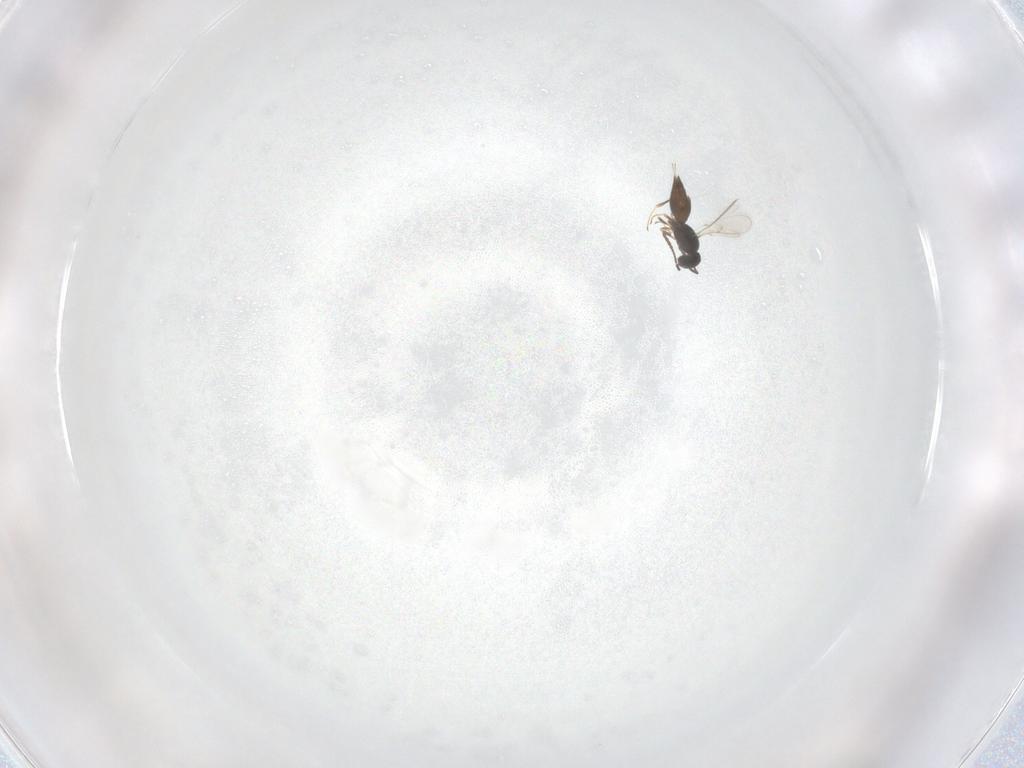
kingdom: Animalia
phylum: Arthropoda
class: Insecta
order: Hymenoptera
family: Scelionidae
